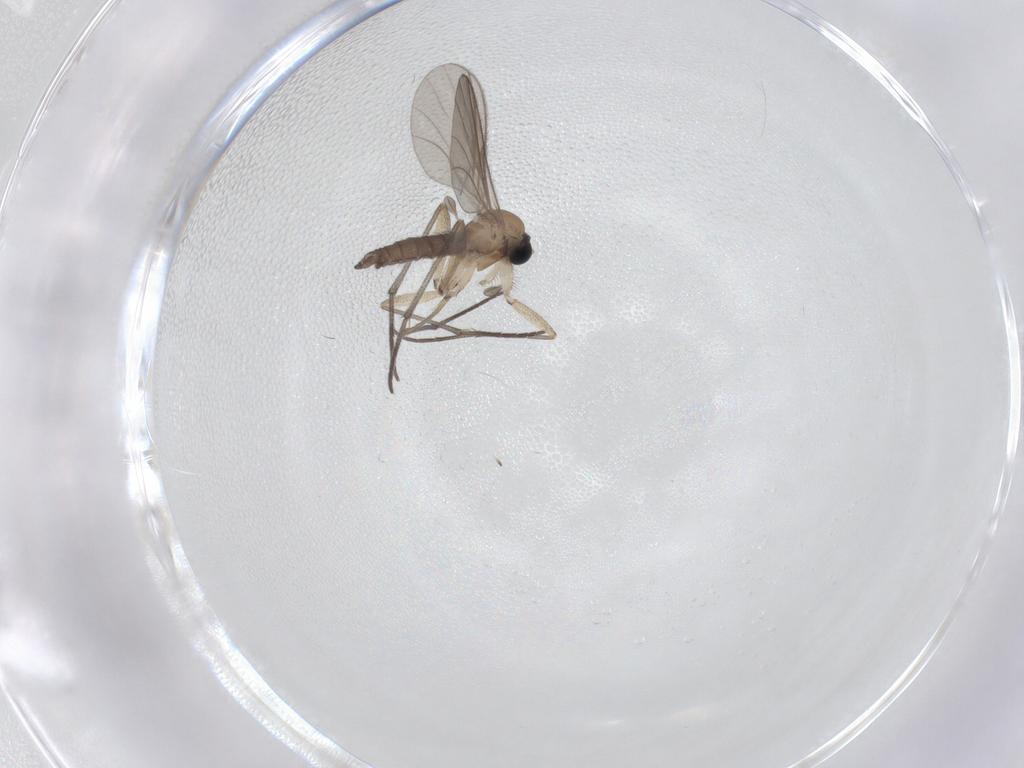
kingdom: Animalia
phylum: Arthropoda
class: Insecta
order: Diptera
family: Sciaridae
